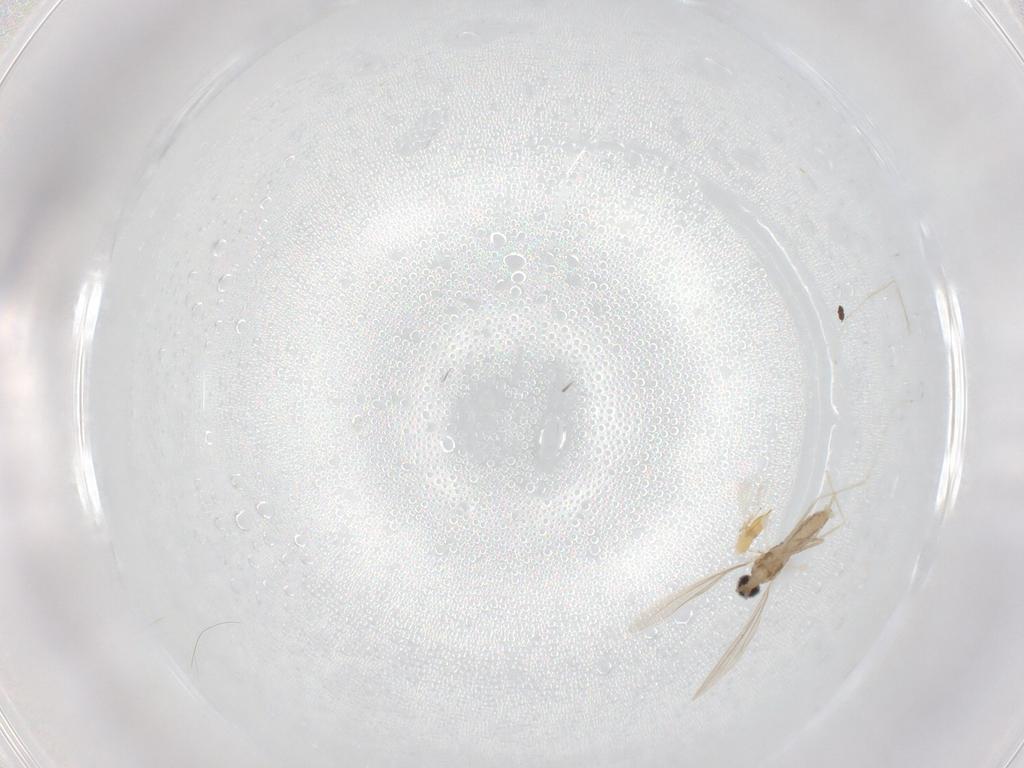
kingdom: Animalia
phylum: Arthropoda
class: Insecta
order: Diptera
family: Cecidomyiidae
